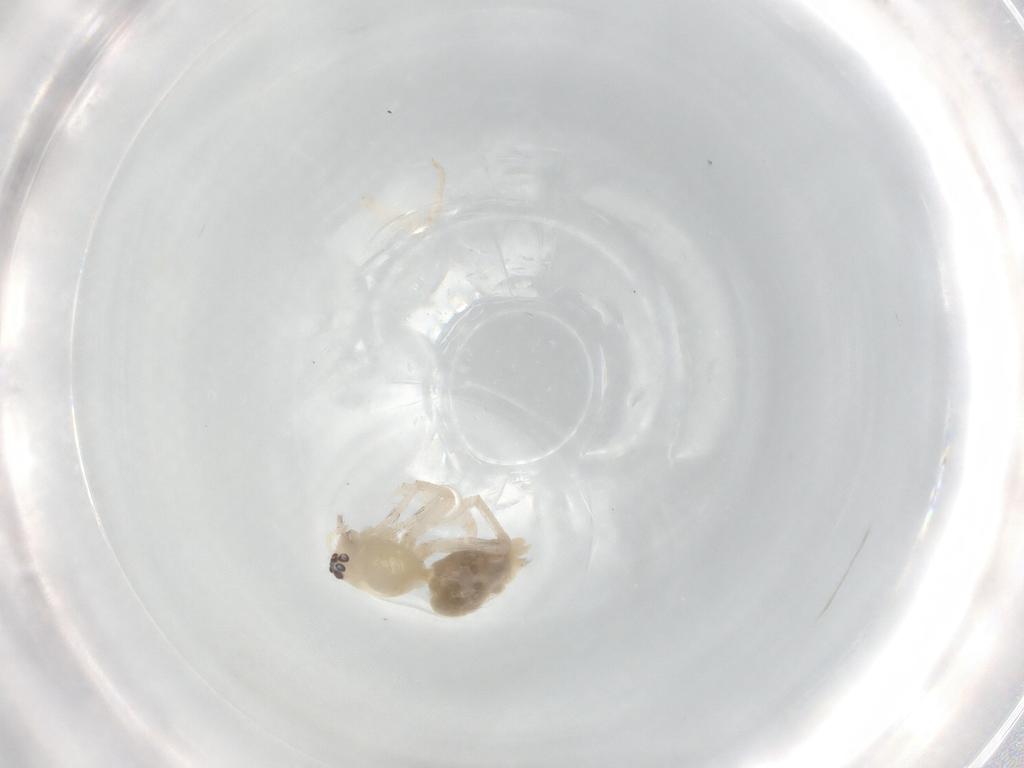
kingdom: Animalia
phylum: Arthropoda
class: Arachnida
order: Araneae
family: Anyphaenidae
